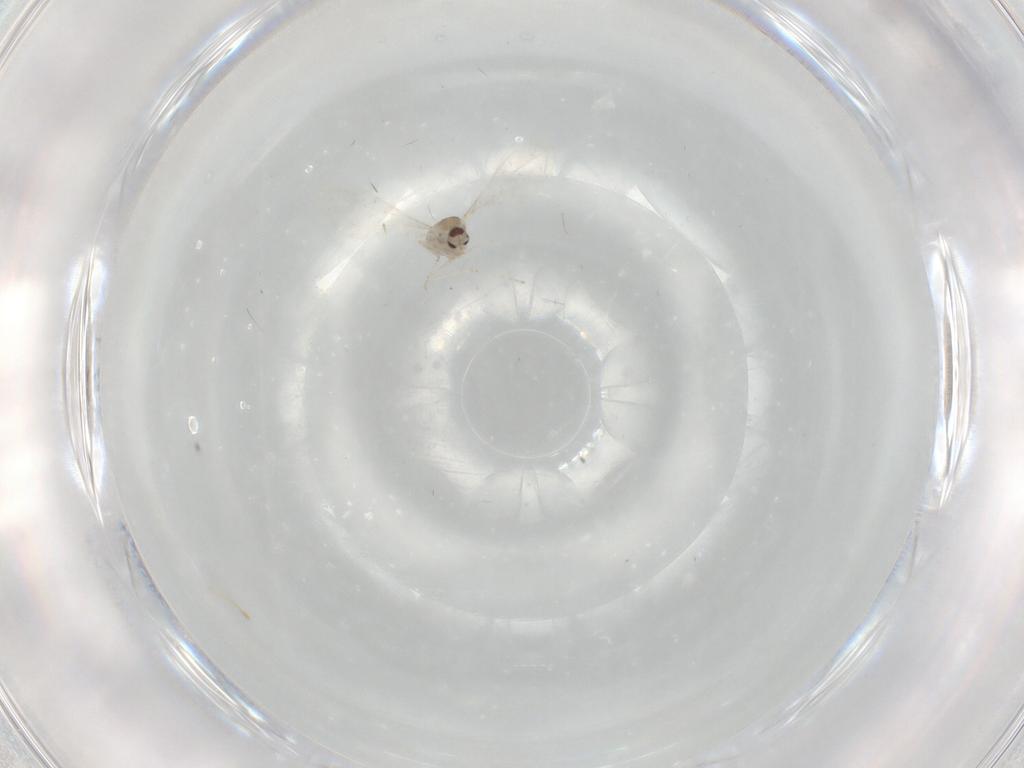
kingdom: Animalia
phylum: Arthropoda
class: Insecta
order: Diptera
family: Cecidomyiidae
